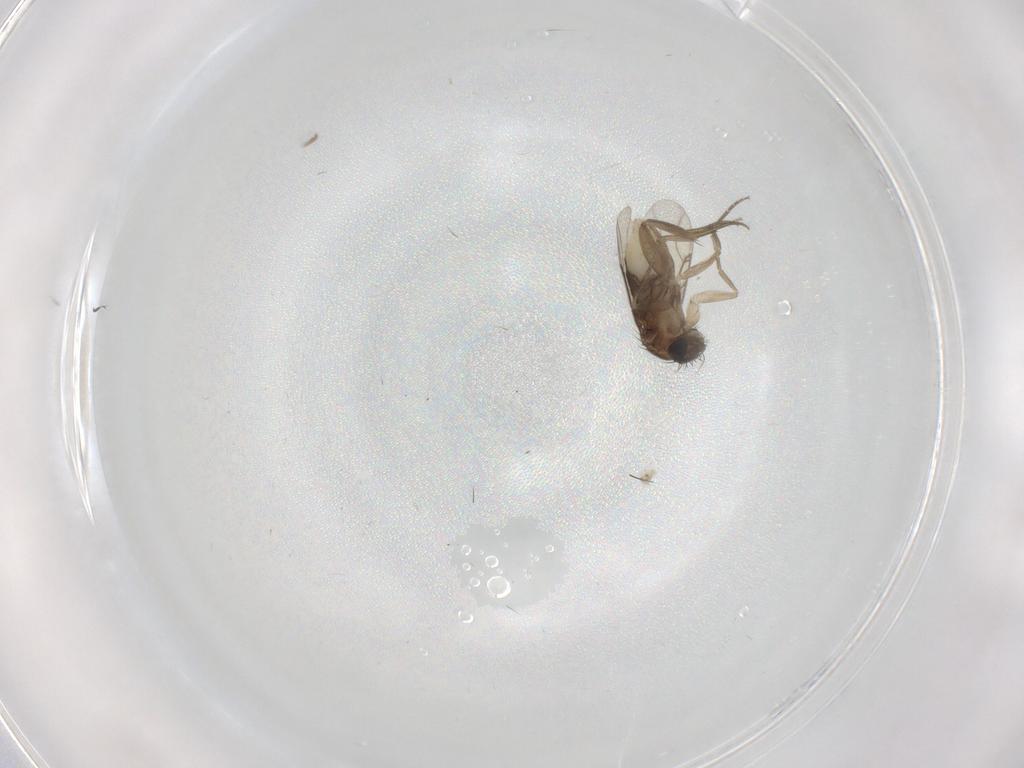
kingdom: Animalia
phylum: Arthropoda
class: Insecta
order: Diptera
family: Phoridae
